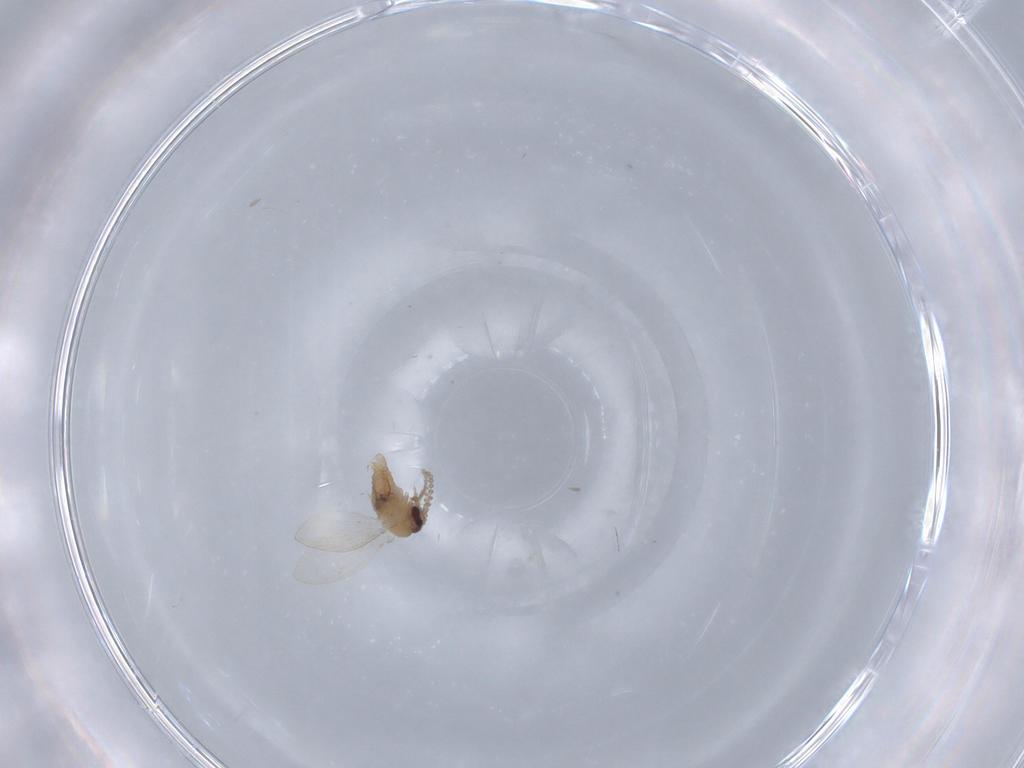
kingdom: Animalia
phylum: Arthropoda
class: Insecta
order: Diptera
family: Psychodidae
